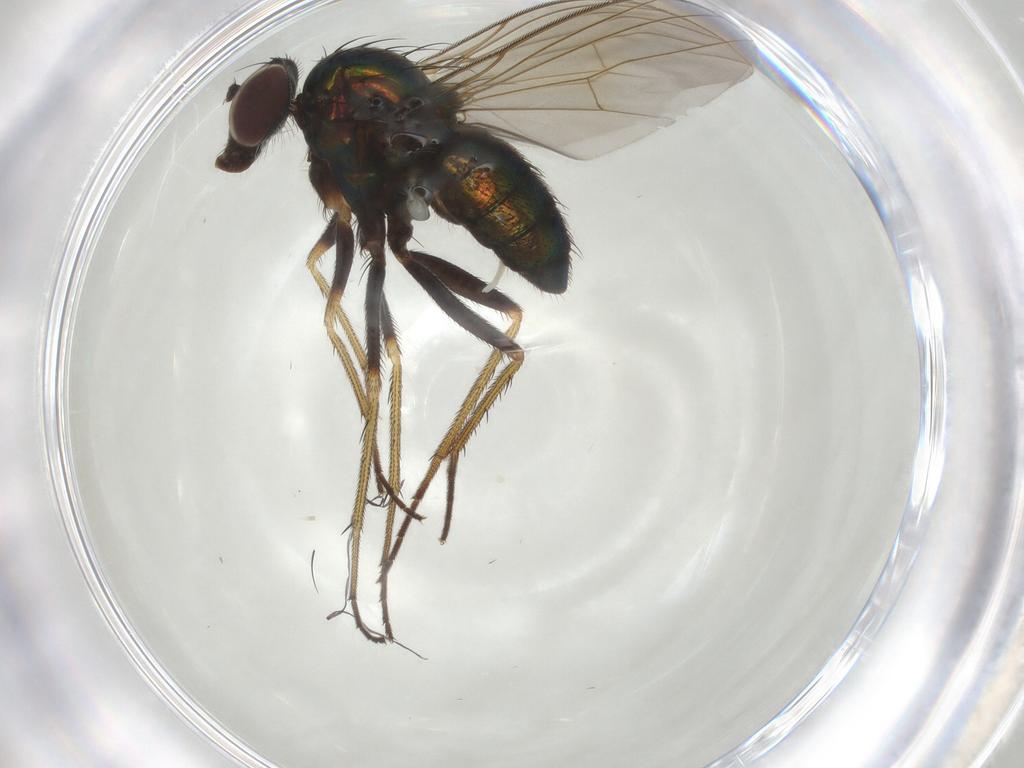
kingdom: Animalia
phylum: Arthropoda
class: Insecta
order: Diptera
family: Dolichopodidae
